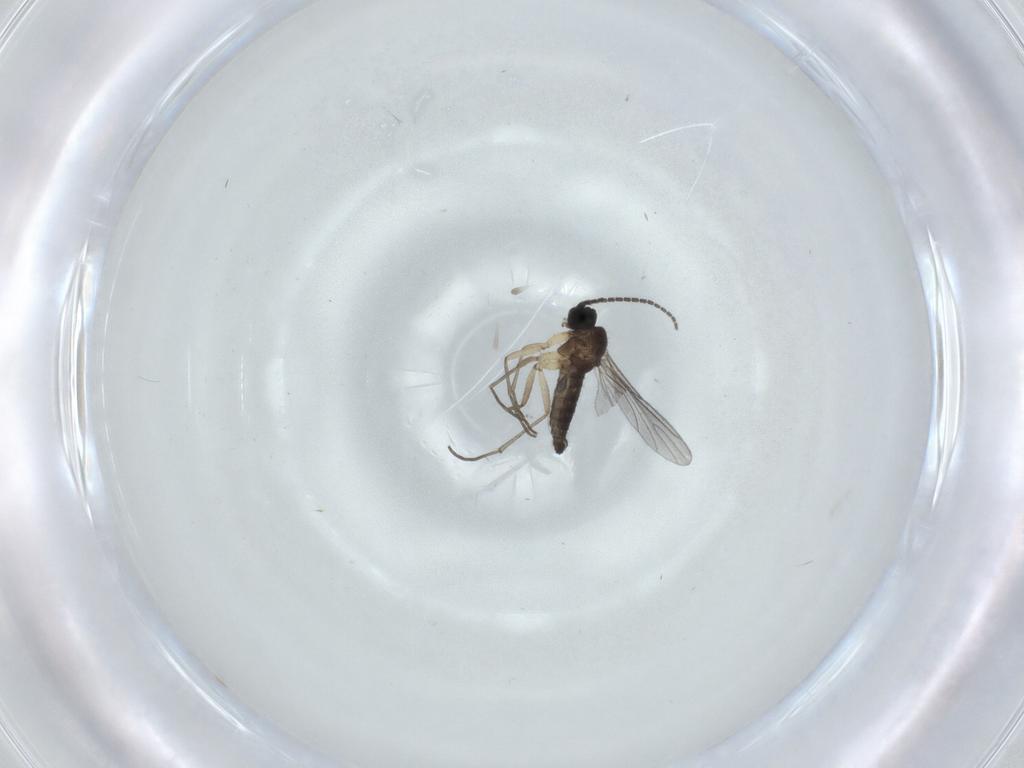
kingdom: Animalia
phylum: Arthropoda
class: Insecta
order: Diptera
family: Sciaridae
